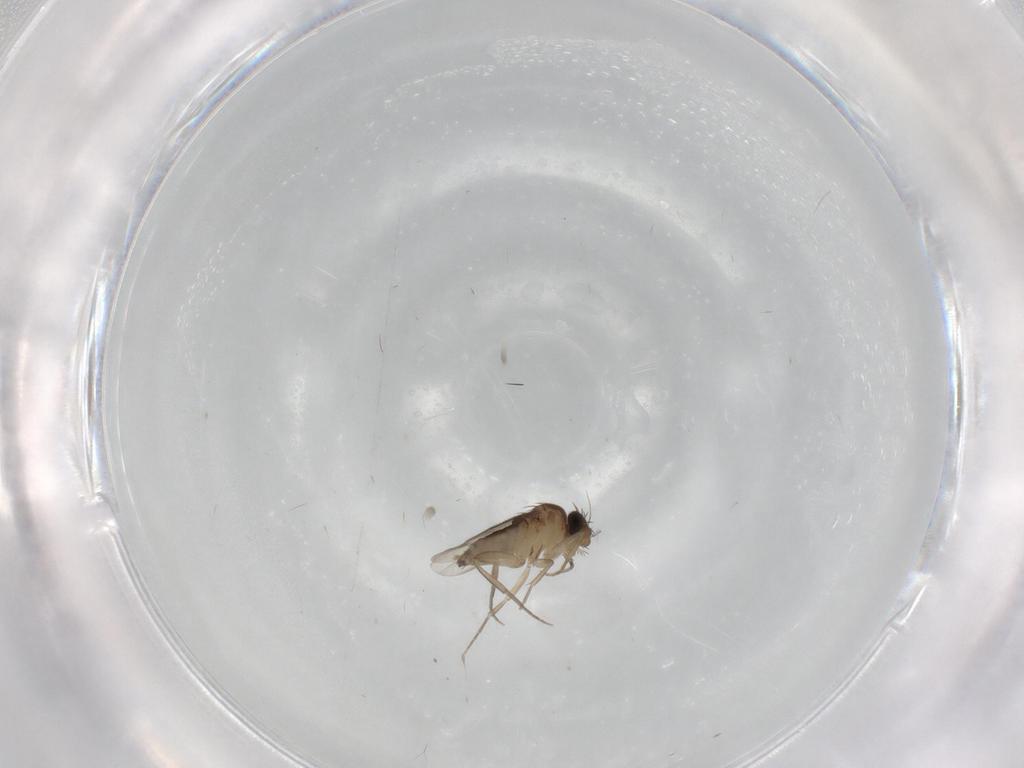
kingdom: Animalia
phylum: Arthropoda
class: Insecta
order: Diptera
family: Phoridae
